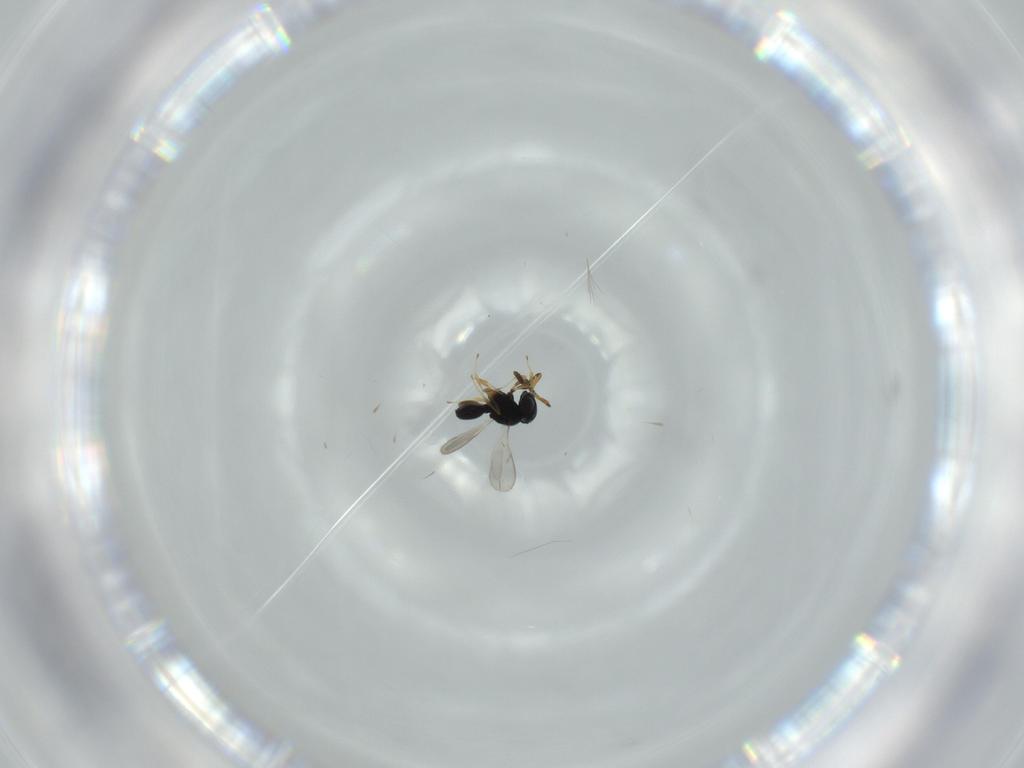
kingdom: Animalia
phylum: Arthropoda
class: Insecta
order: Hymenoptera
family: Scelionidae
